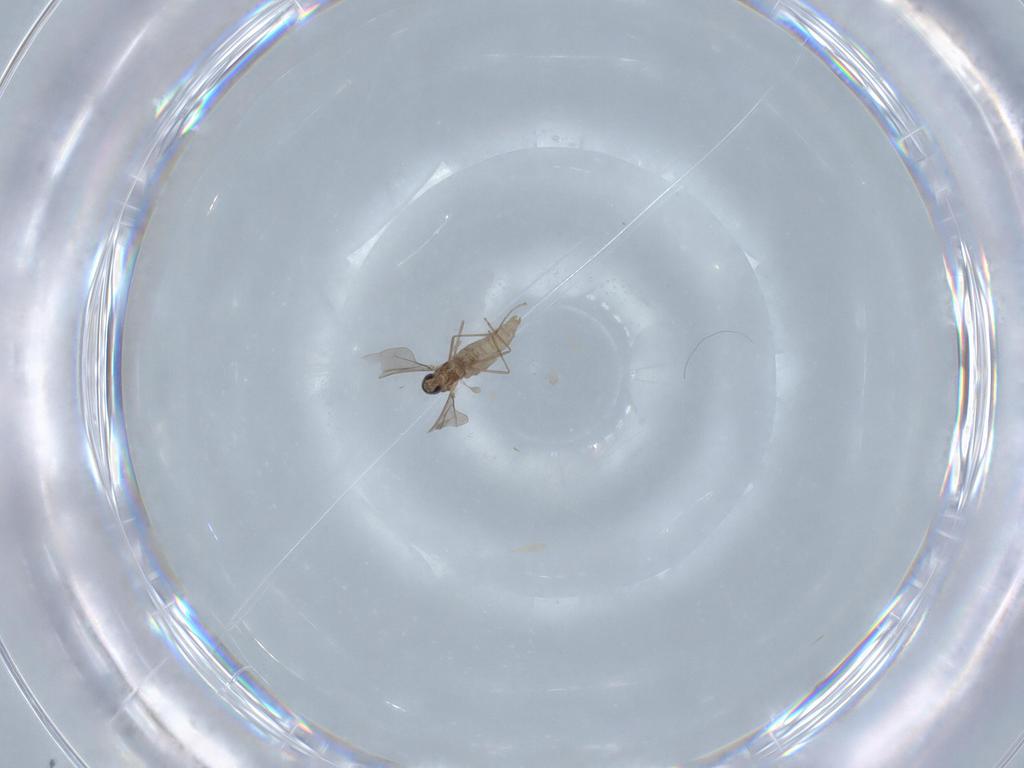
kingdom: Animalia
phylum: Arthropoda
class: Insecta
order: Diptera
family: Cecidomyiidae
